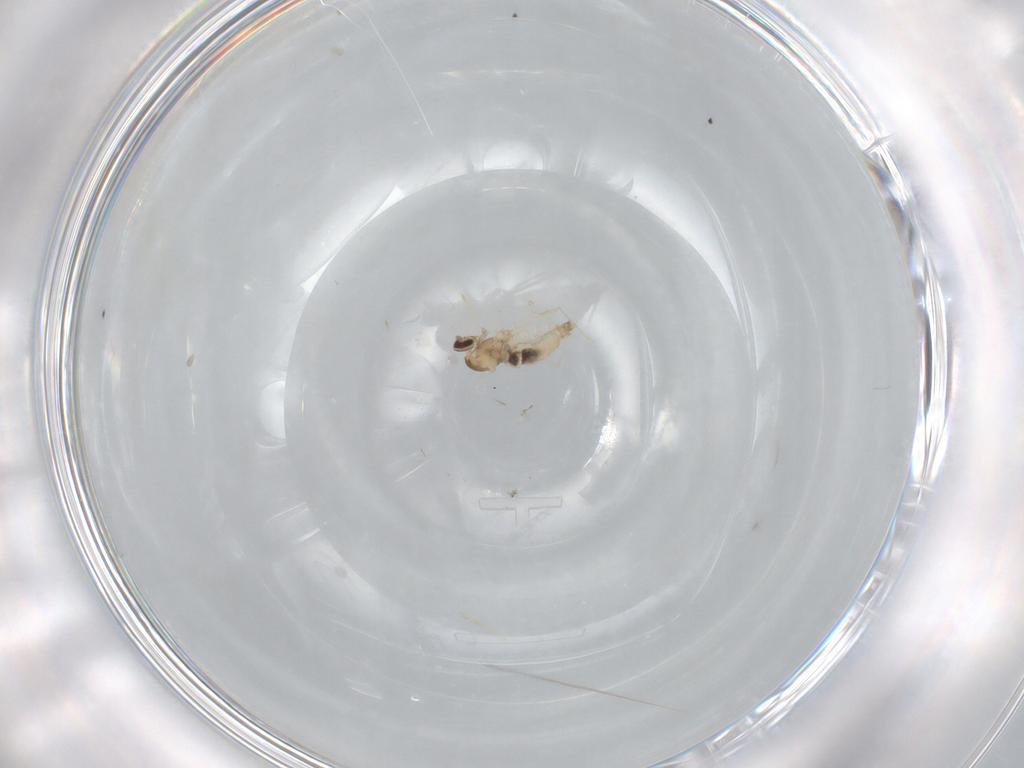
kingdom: Animalia
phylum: Arthropoda
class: Insecta
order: Diptera
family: Cecidomyiidae
